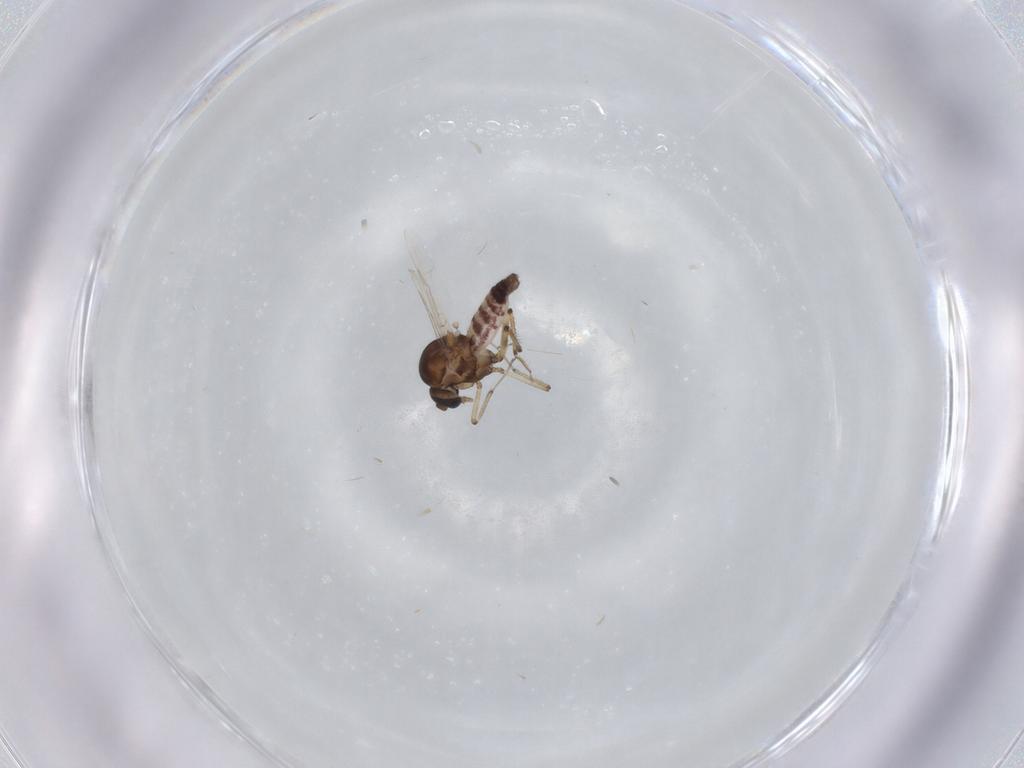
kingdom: Animalia
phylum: Arthropoda
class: Insecta
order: Diptera
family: Ceratopogonidae
